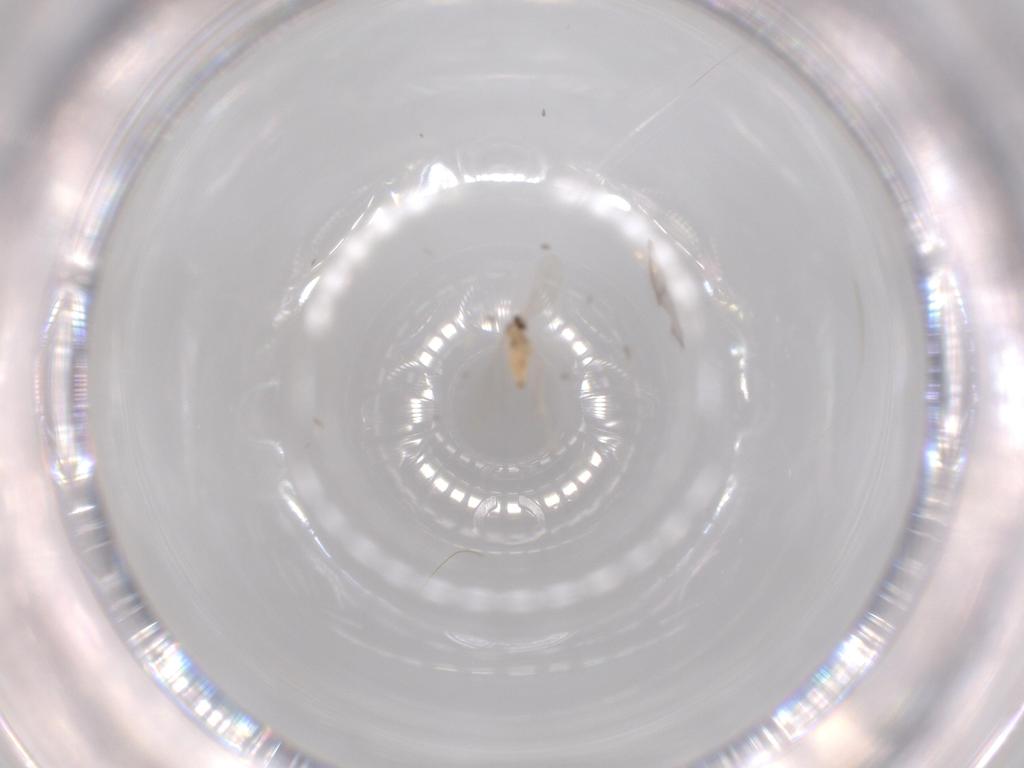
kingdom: Animalia
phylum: Arthropoda
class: Insecta
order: Diptera
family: Cecidomyiidae
